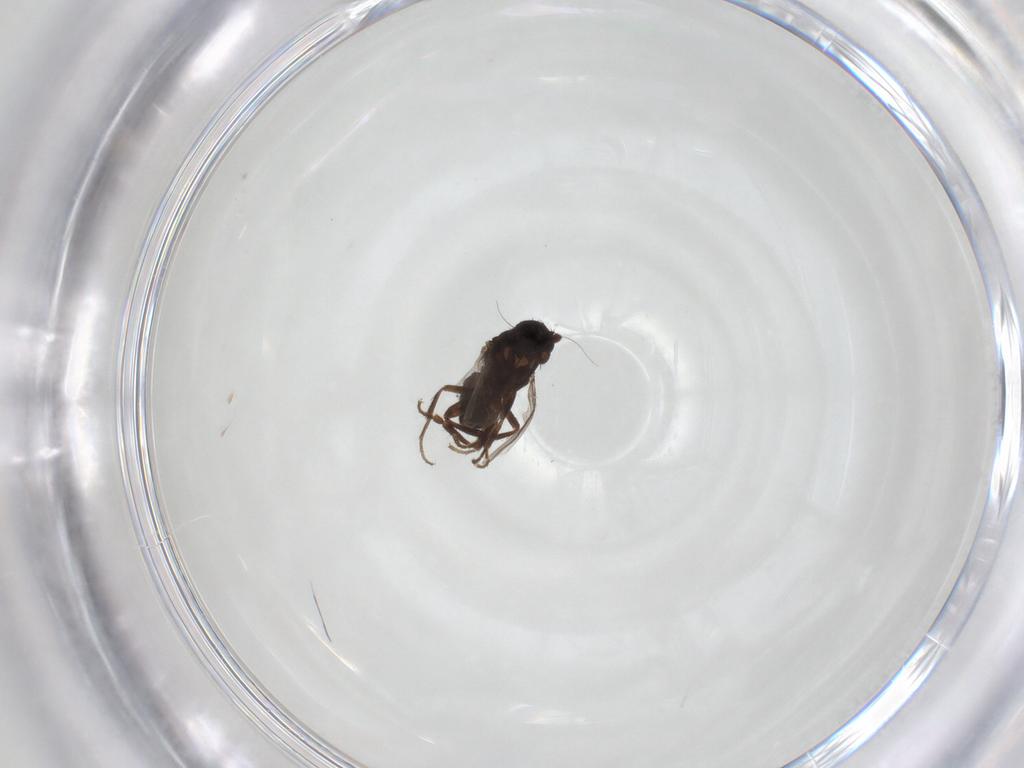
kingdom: Animalia
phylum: Arthropoda
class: Insecta
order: Diptera
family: Sphaeroceridae
